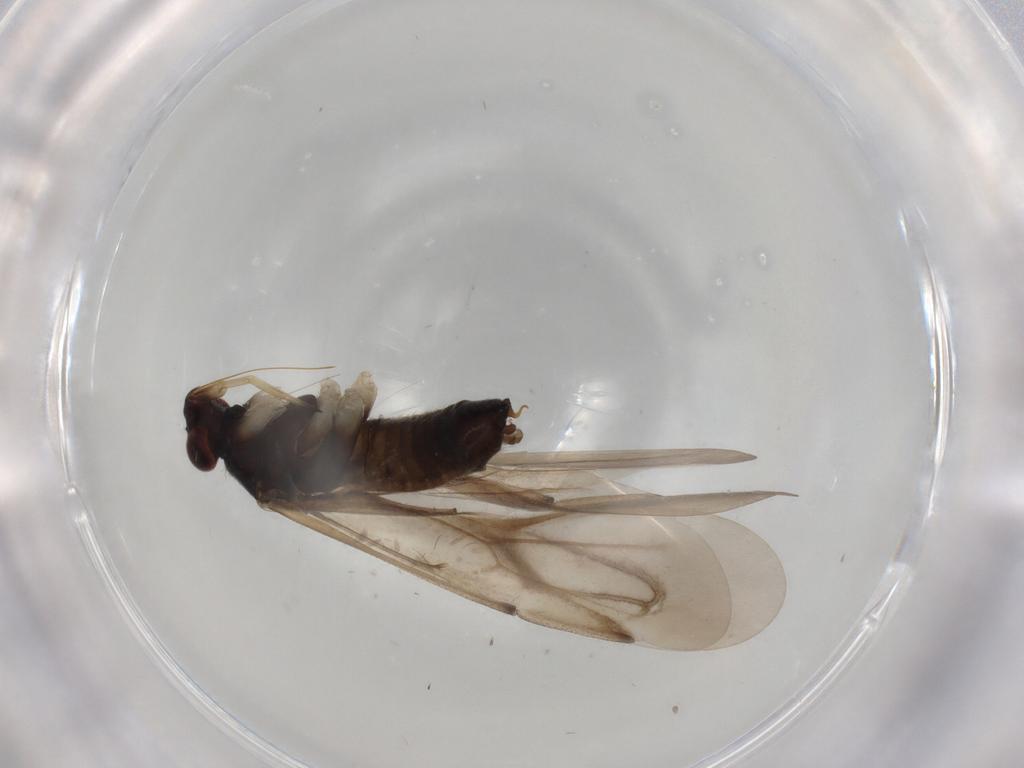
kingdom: Animalia
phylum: Arthropoda
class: Insecta
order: Hemiptera
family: Miridae
